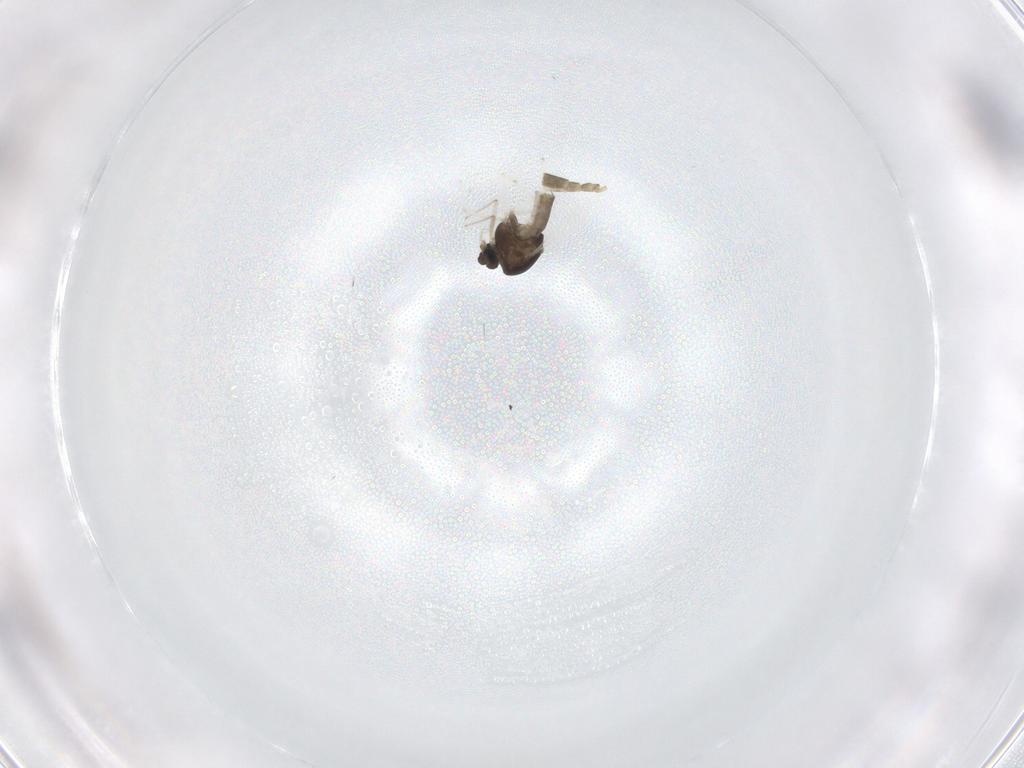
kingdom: Animalia
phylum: Arthropoda
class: Insecta
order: Diptera
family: Chironomidae
